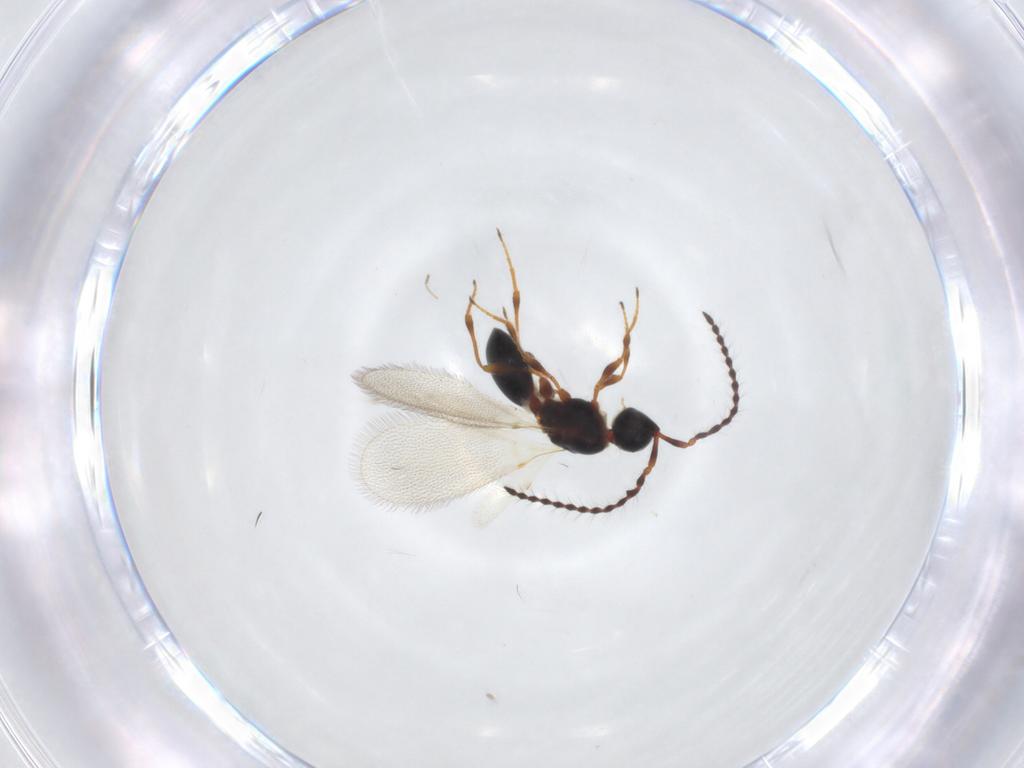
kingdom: Animalia
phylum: Arthropoda
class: Insecta
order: Hymenoptera
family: Diapriidae
